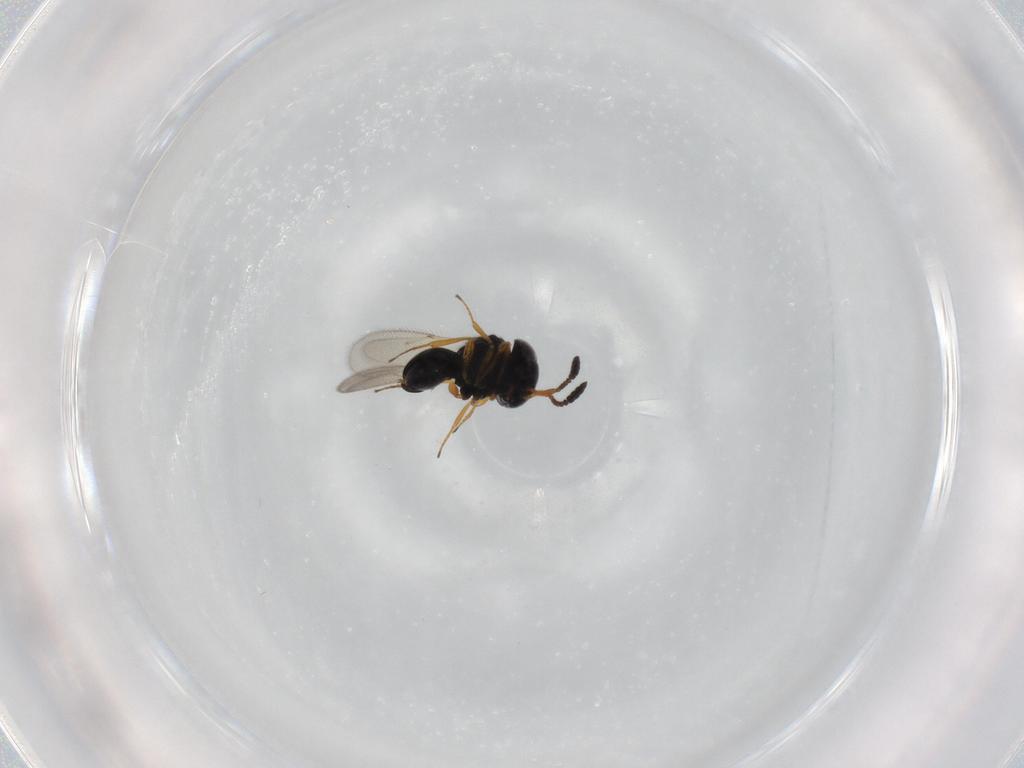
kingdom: Animalia
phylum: Arthropoda
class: Insecta
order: Hymenoptera
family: Scelionidae
